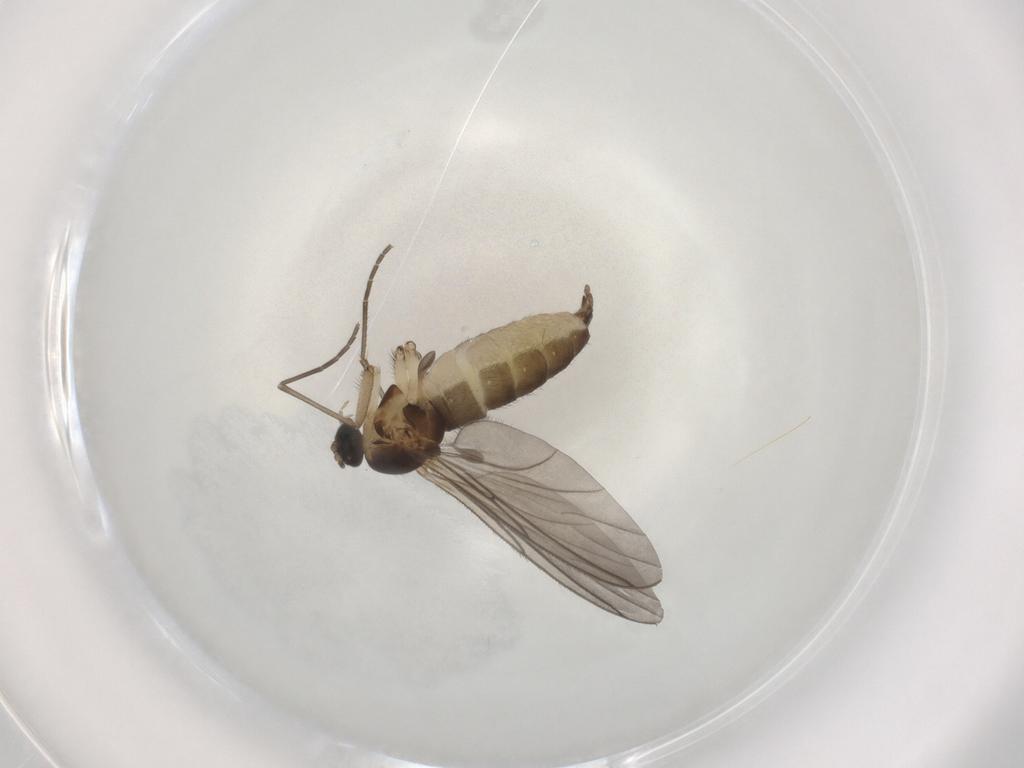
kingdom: Animalia
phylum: Arthropoda
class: Insecta
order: Diptera
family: Sciaridae
